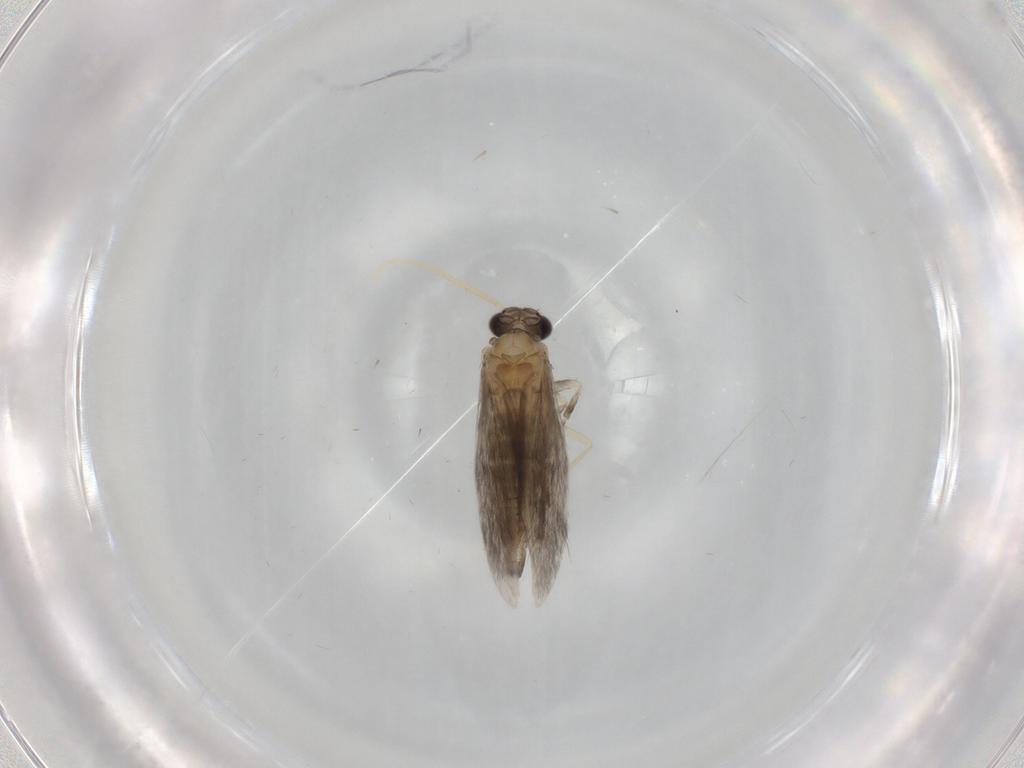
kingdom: Animalia
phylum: Arthropoda
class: Insecta
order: Trichoptera
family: Hydroptilidae
